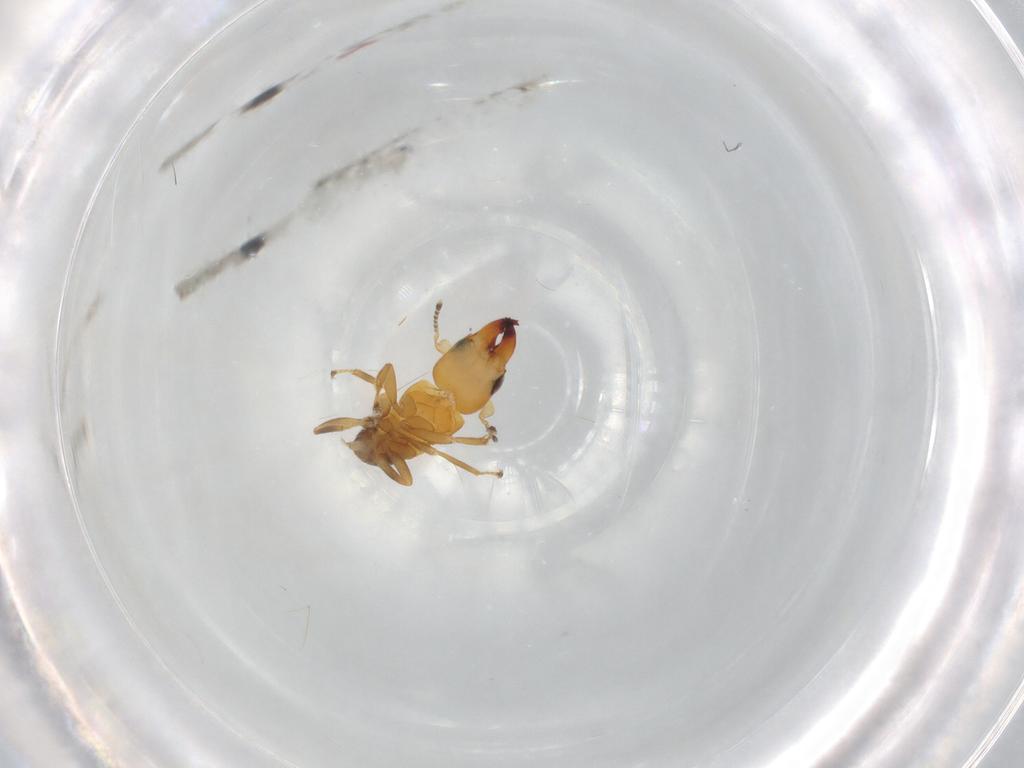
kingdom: Animalia
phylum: Arthropoda
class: Insecta
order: Hymenoptera
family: Pteromalidae
